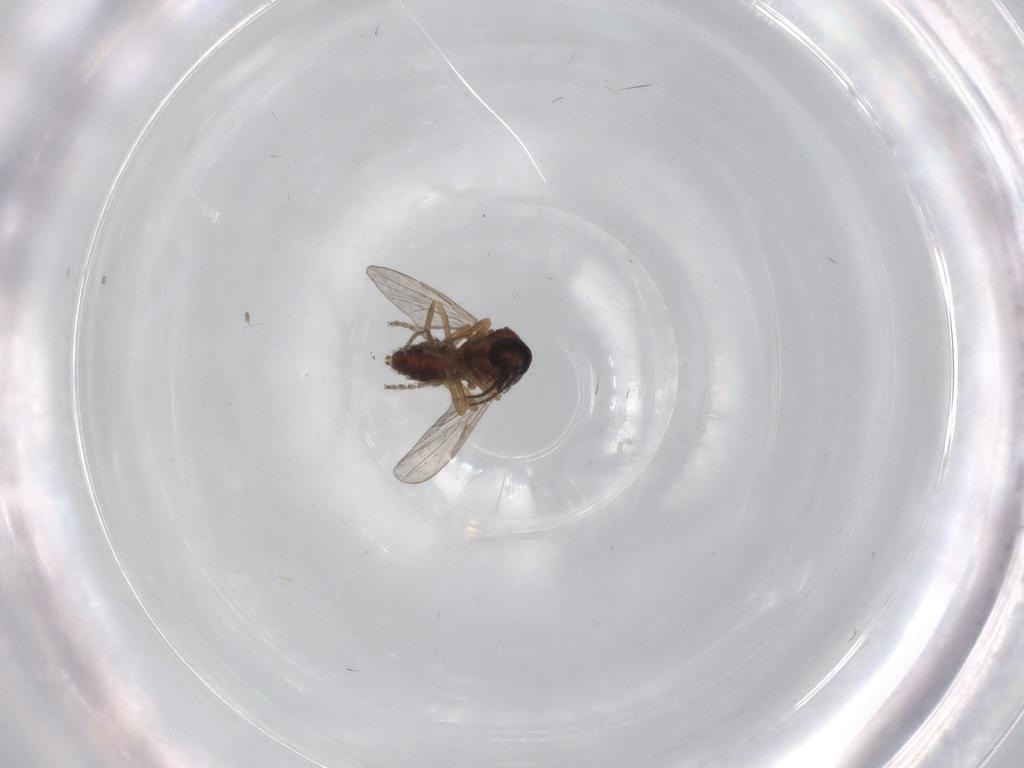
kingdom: Animalia
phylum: Arthropoda
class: Insecta
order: Diptera
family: Ceratopogonidae
